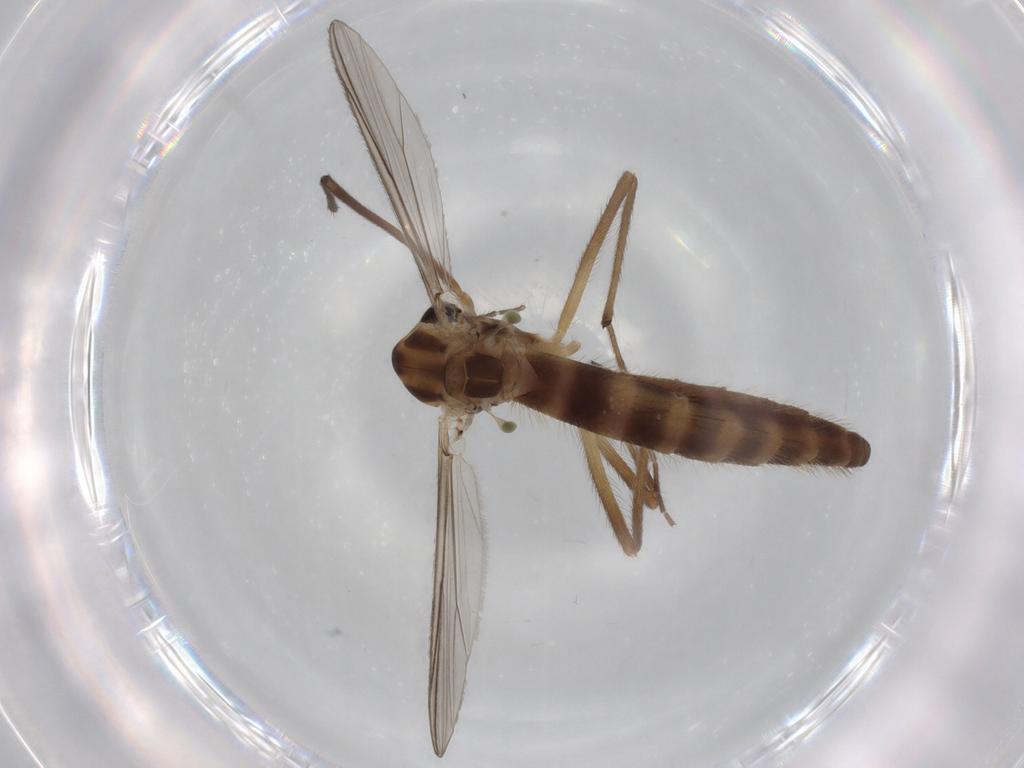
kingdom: Animalia
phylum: Arthropoda
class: Insecta
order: Diptera
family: Chironomidae
